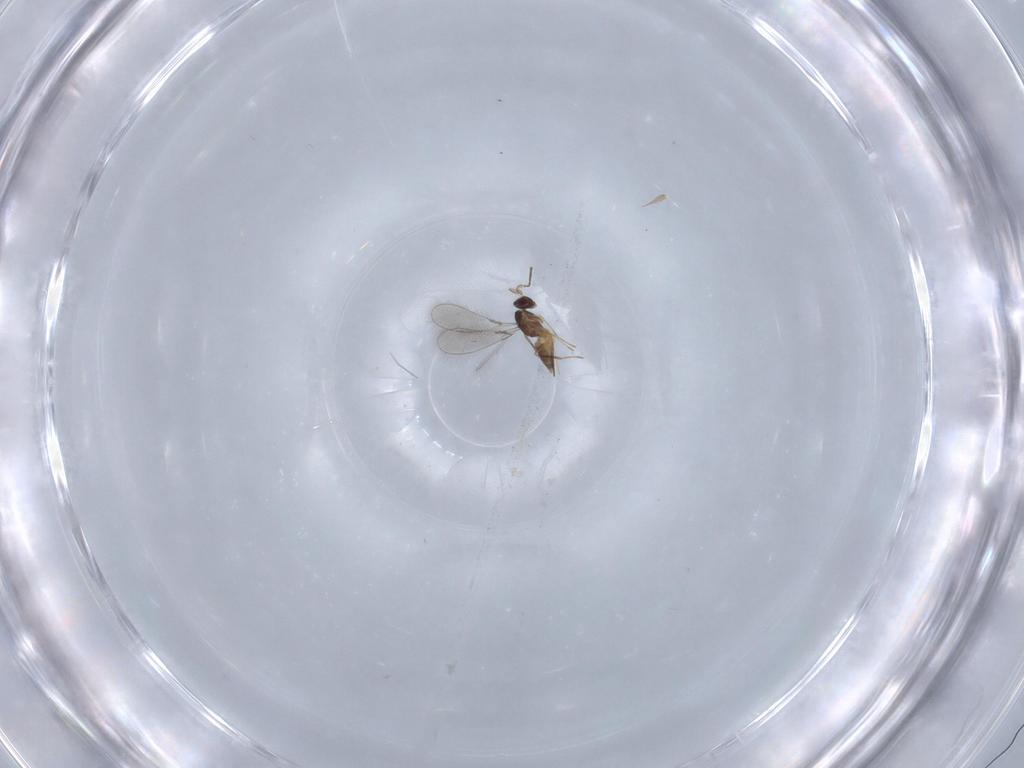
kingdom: Animalia
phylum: Arthropoda
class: Insecta
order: Hymenoptera
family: Mymaridae
